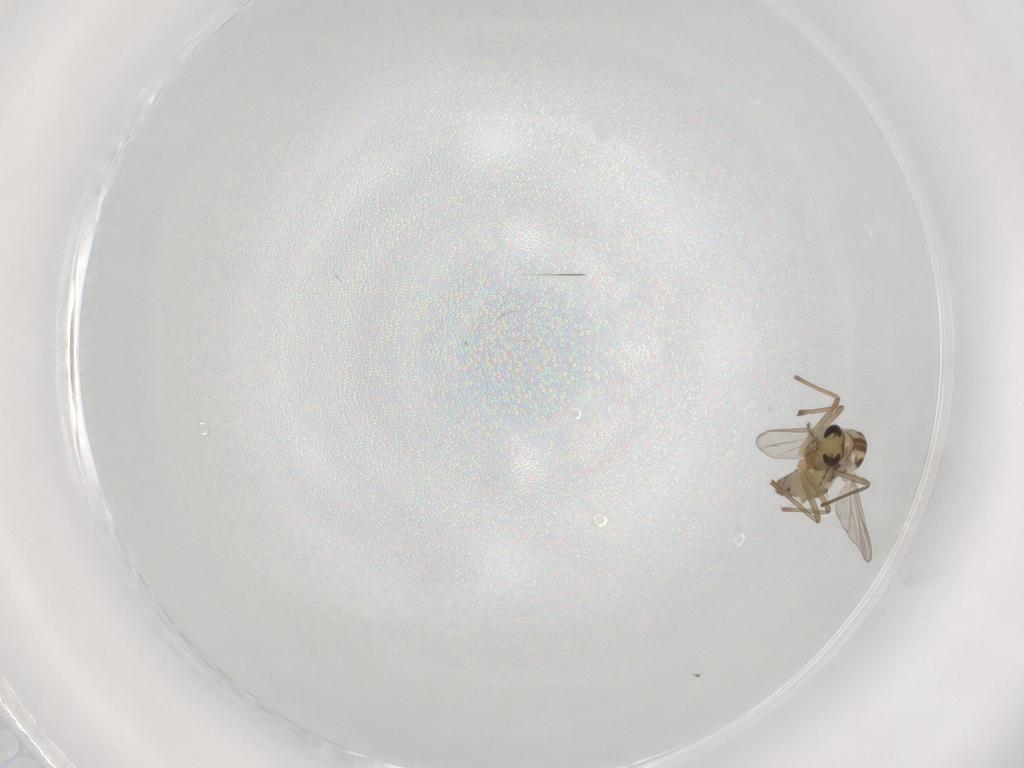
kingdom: Animalia
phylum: Arthropoda
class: Insecta
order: Diptera
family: Chironomidae
